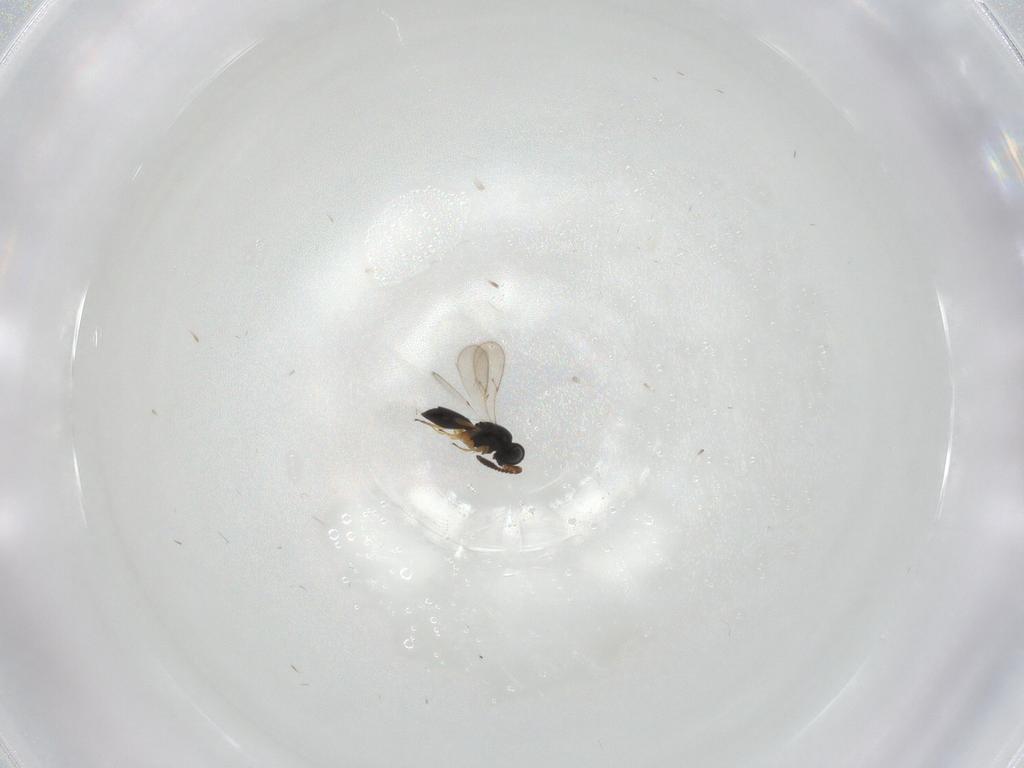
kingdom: Animalia
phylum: Arthropoda
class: Insecta
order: Hymenoptera
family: Scelionidae
